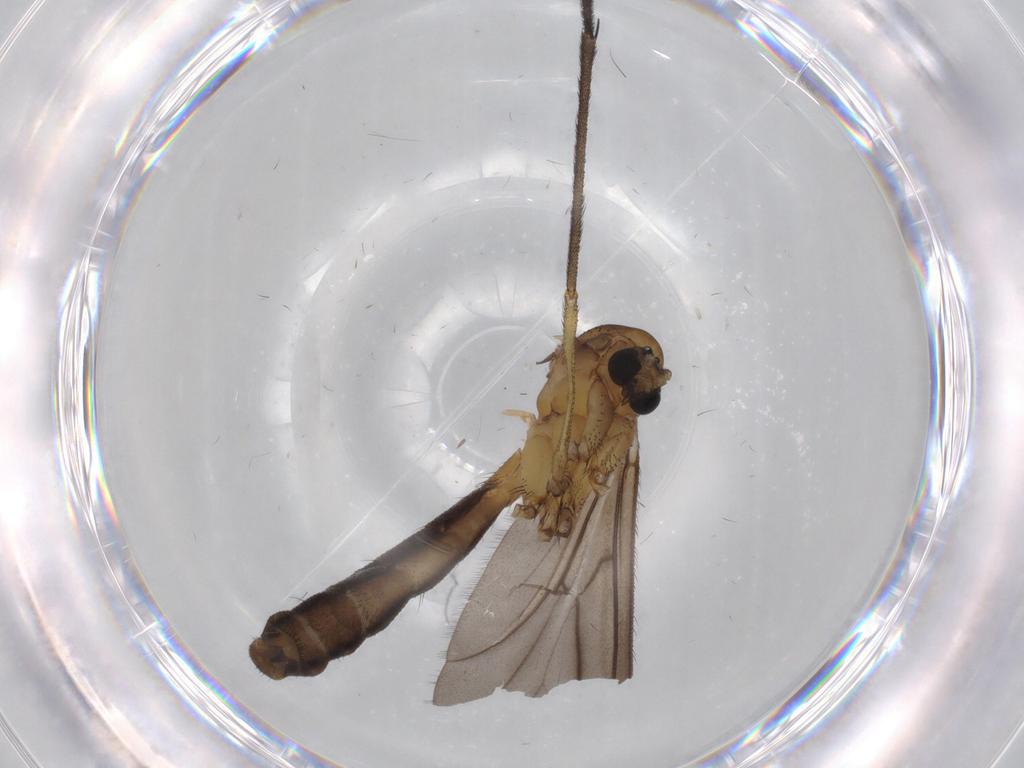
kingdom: Animalia
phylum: Arthropoda
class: Insecta
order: Diptera
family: Ditomyiidae
